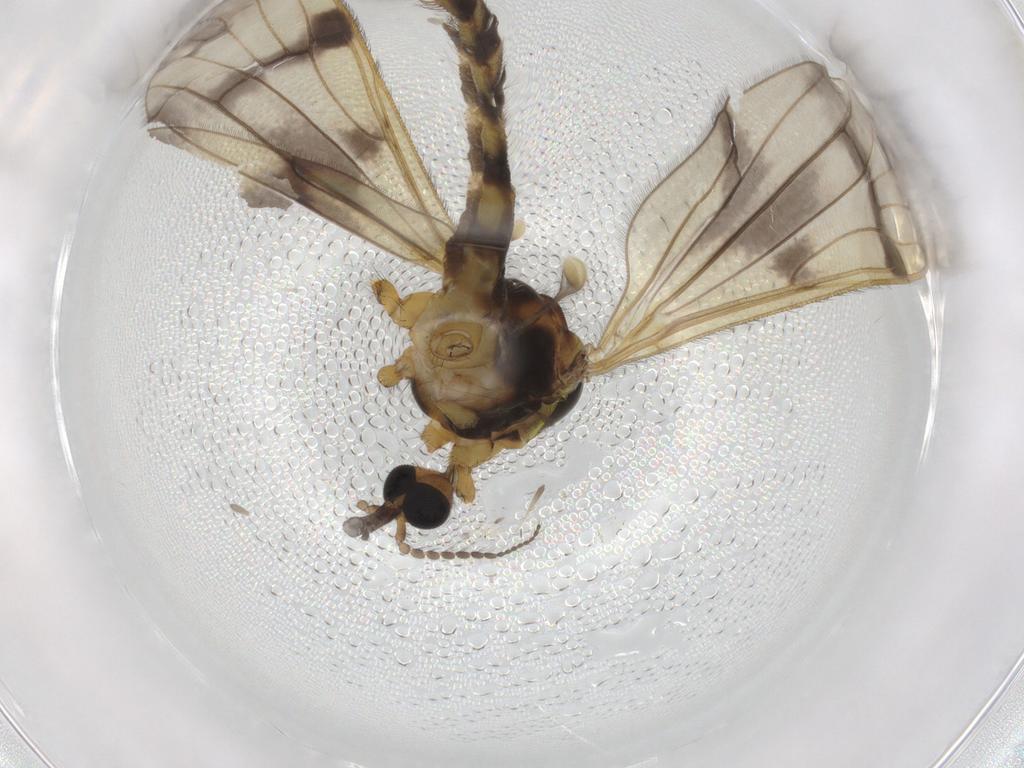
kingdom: Animalia
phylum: Arthropoda
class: Insecta
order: Diptera
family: Limoniidae
